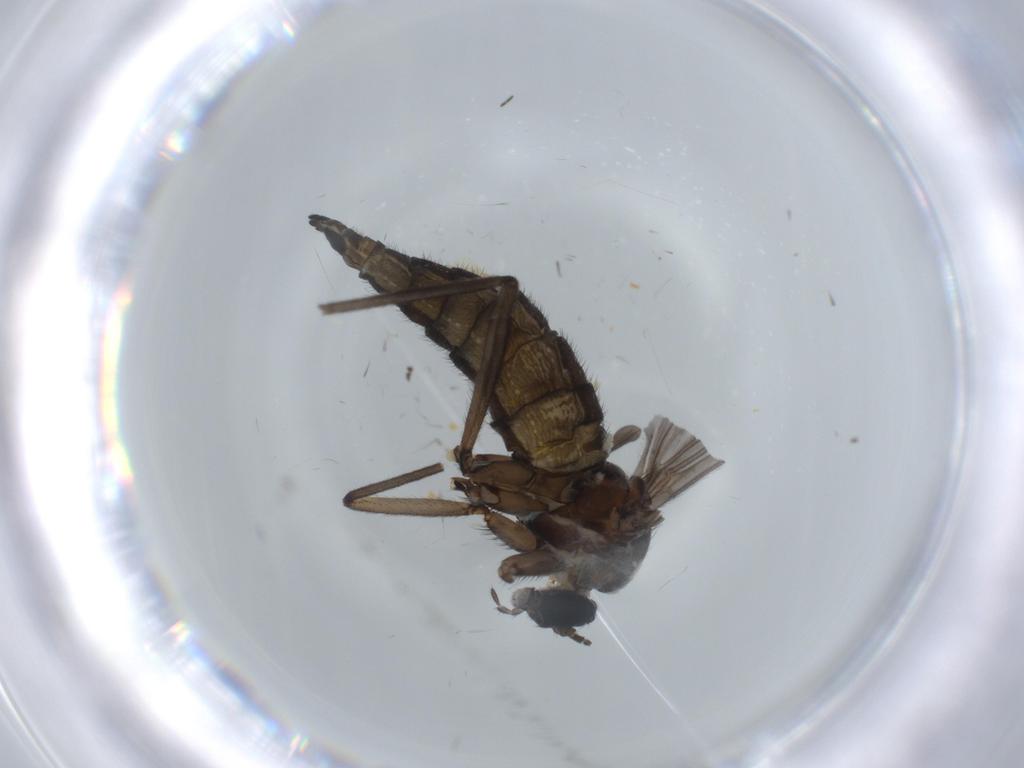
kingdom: Animalia
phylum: Arthropoda
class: Insecta
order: Diptera
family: Sciaridae
